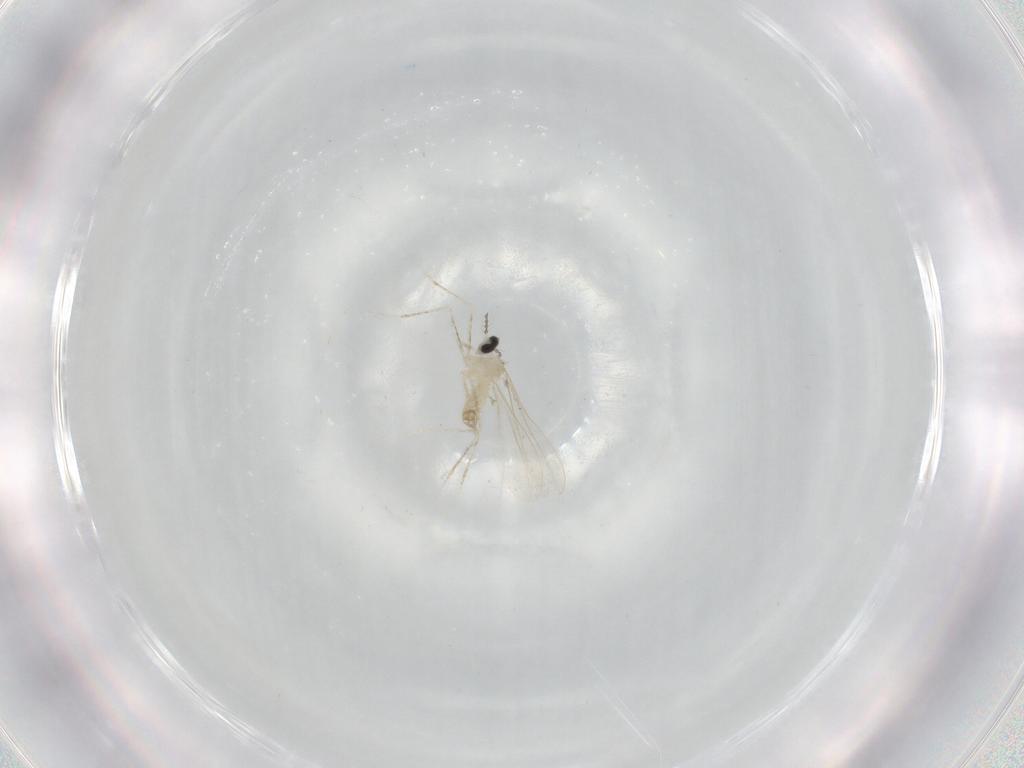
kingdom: Animalia
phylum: Arthropoda
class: Insecta
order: Diptera
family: Cecidomyiidae
